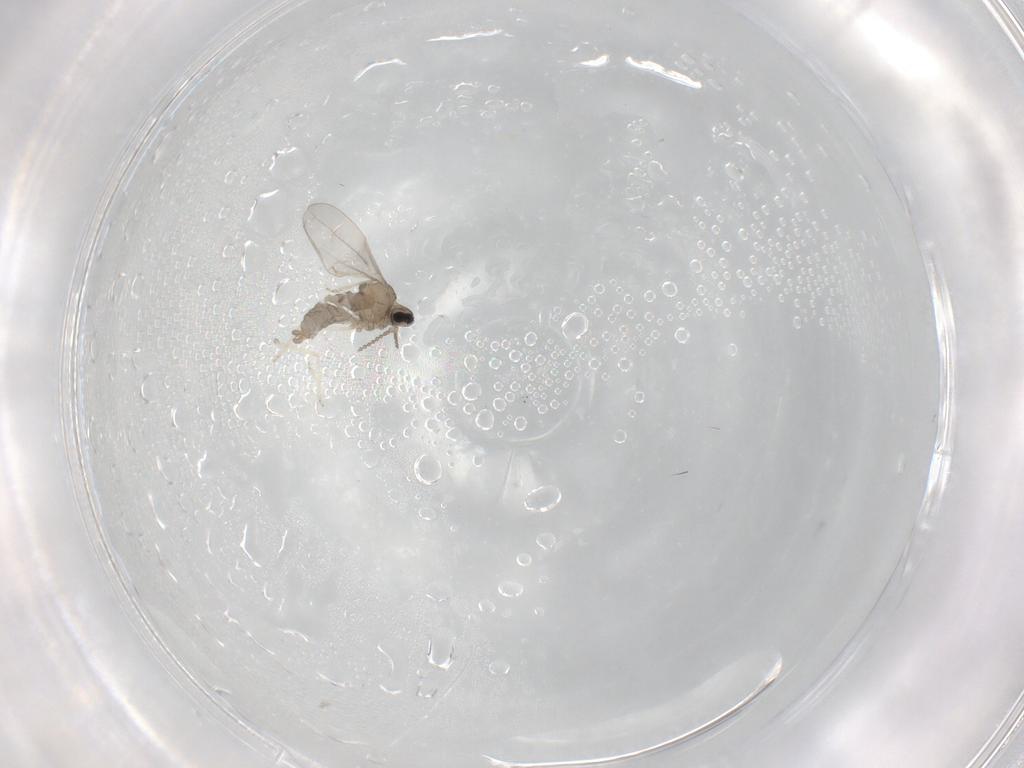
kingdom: Animalia
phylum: Arthropoda
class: Insecta
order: Diptera
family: Cecidomyiidae
